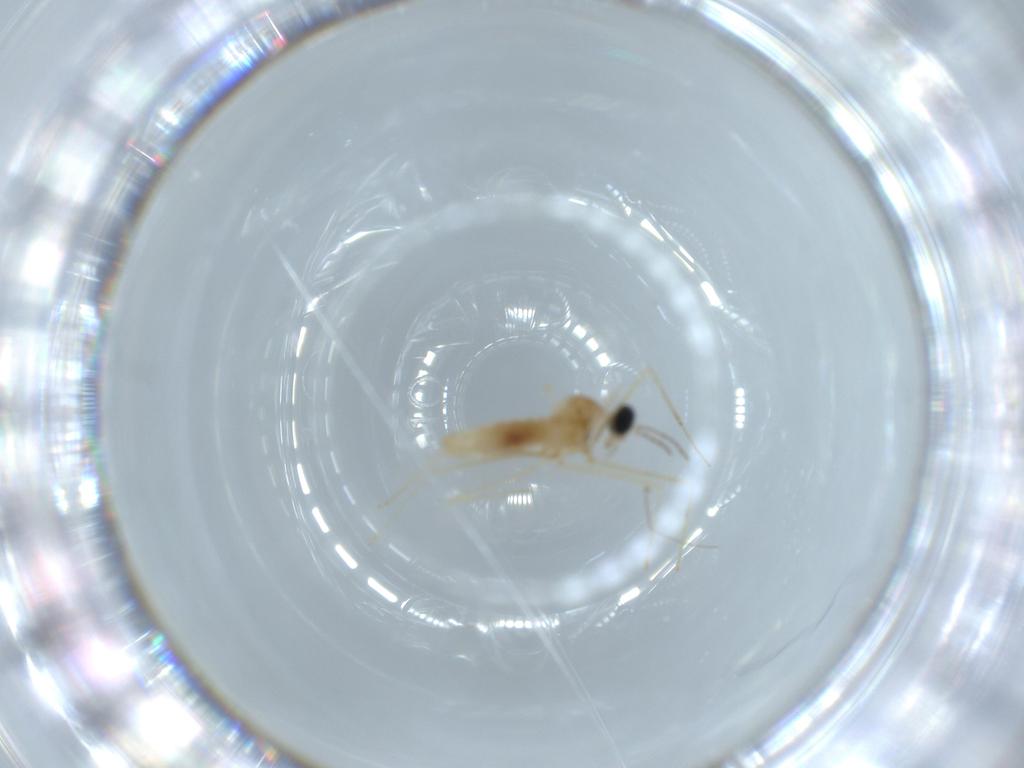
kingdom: Animalia
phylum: Arthropoda
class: Insecta
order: Diptera
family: Cecidomyiidae
